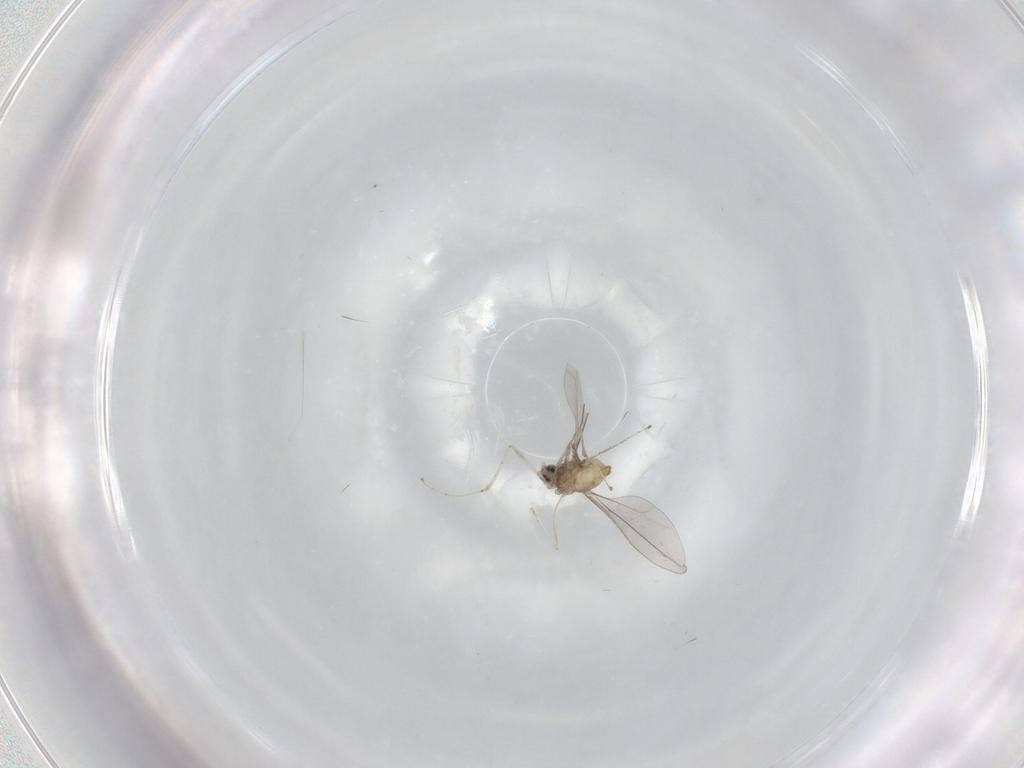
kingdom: Animalia
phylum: Arthropoda
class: Insecta
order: Diptera
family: Cecidomyiidae
